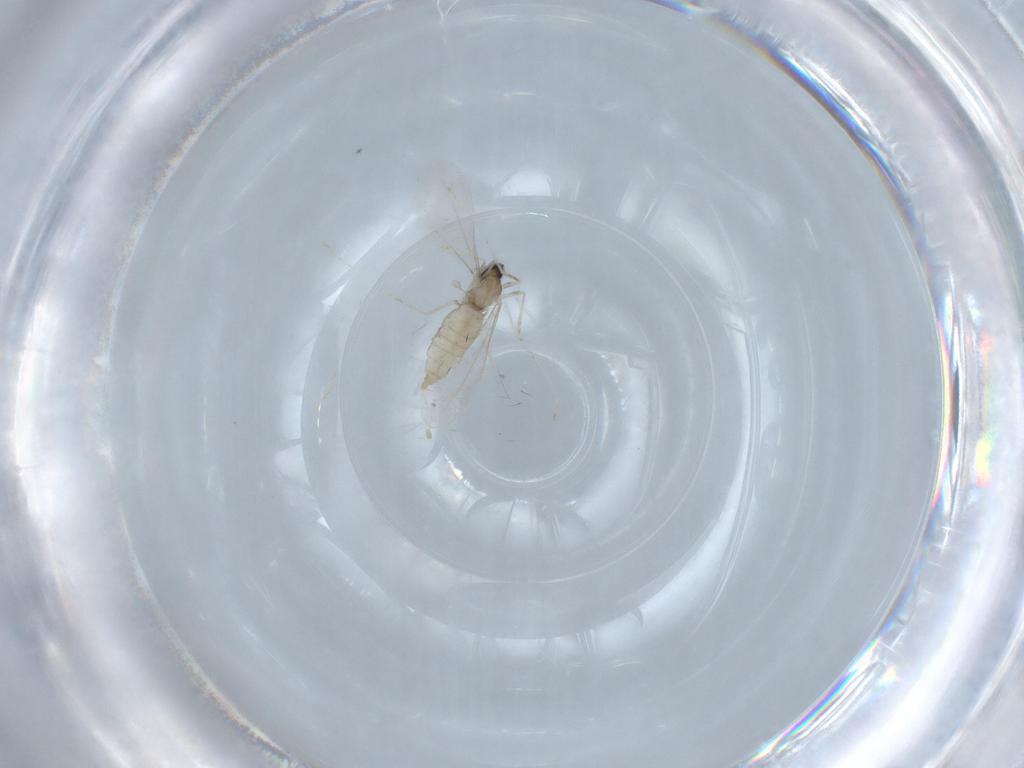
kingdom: Animalia
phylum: Arthropoda
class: Insecta
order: Diptera
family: Cecidomyiidae
